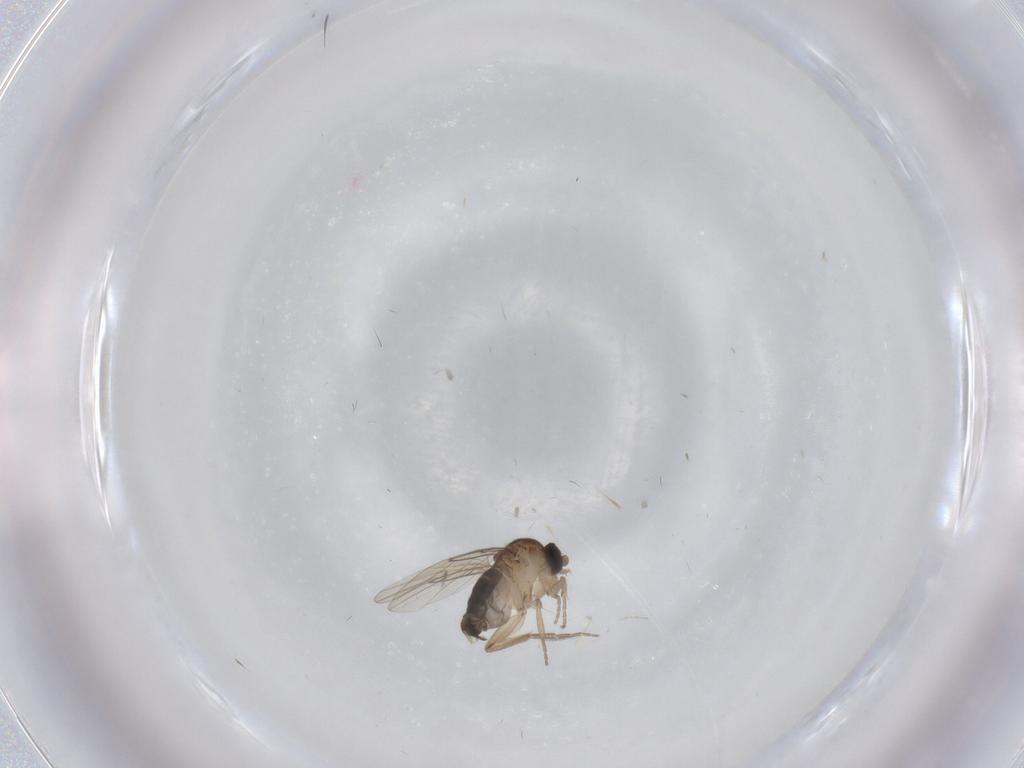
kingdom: Animalia
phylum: Arthropoda
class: Insecta
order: Diptera
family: Phoridae
